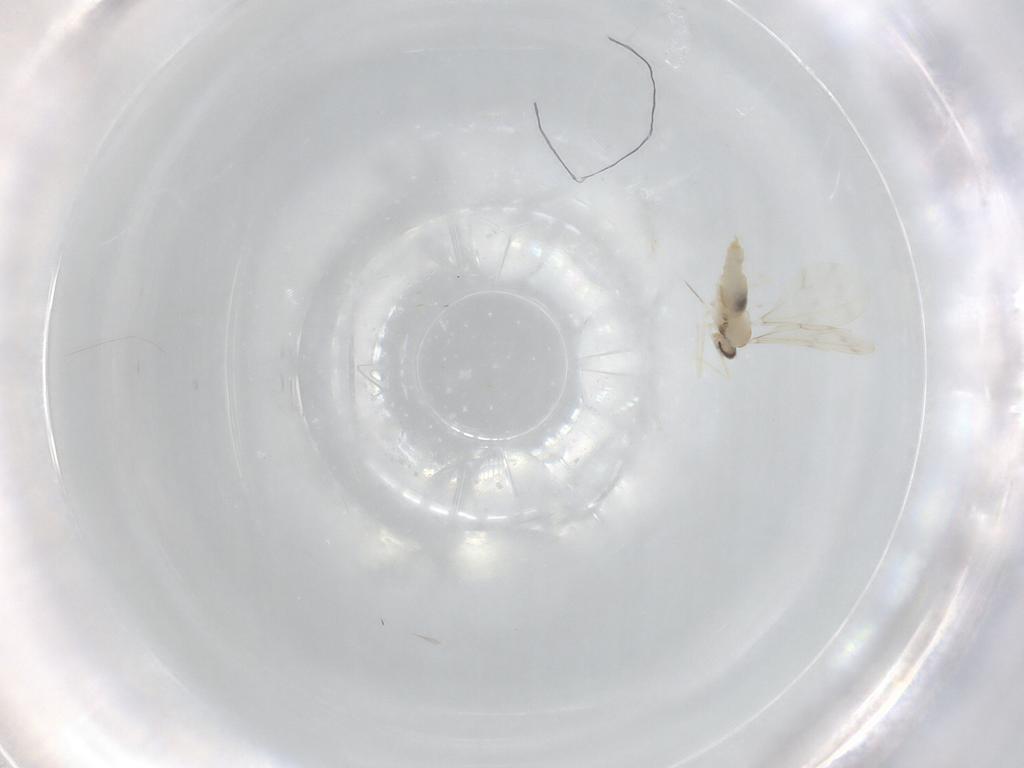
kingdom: Animalia
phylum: Arthropoda
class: Insecta
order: Diptera
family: Cecidomyiidae
